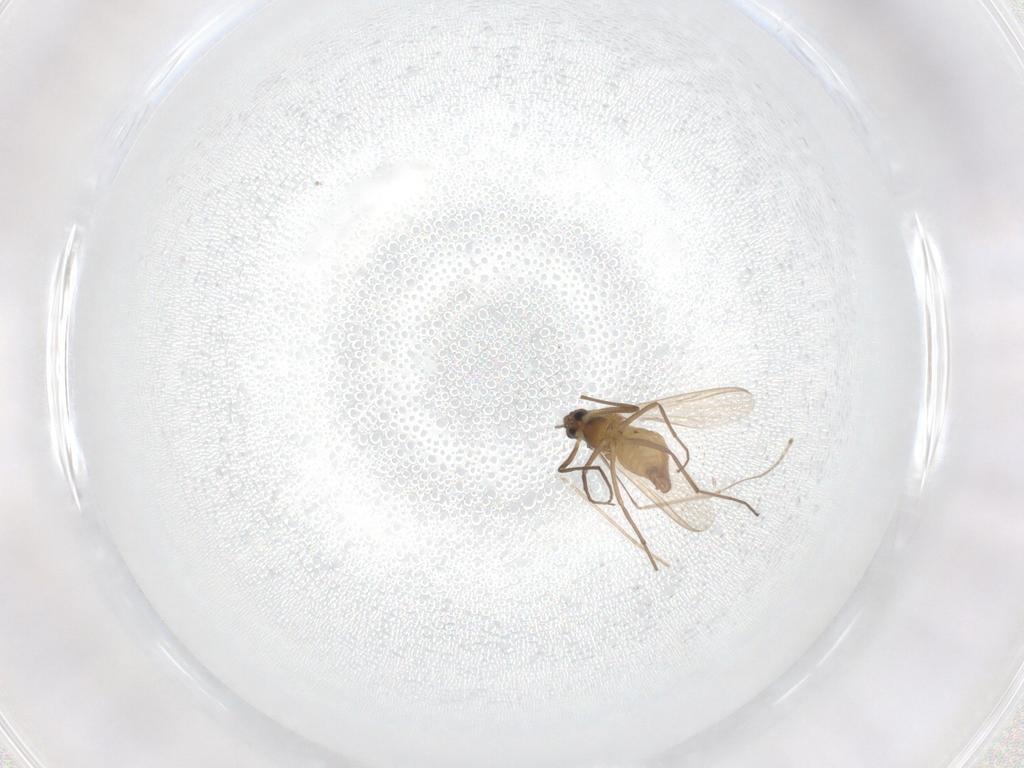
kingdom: Animalia
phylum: Arthropoda
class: Insecta
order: Diptera
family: Chironomidae
